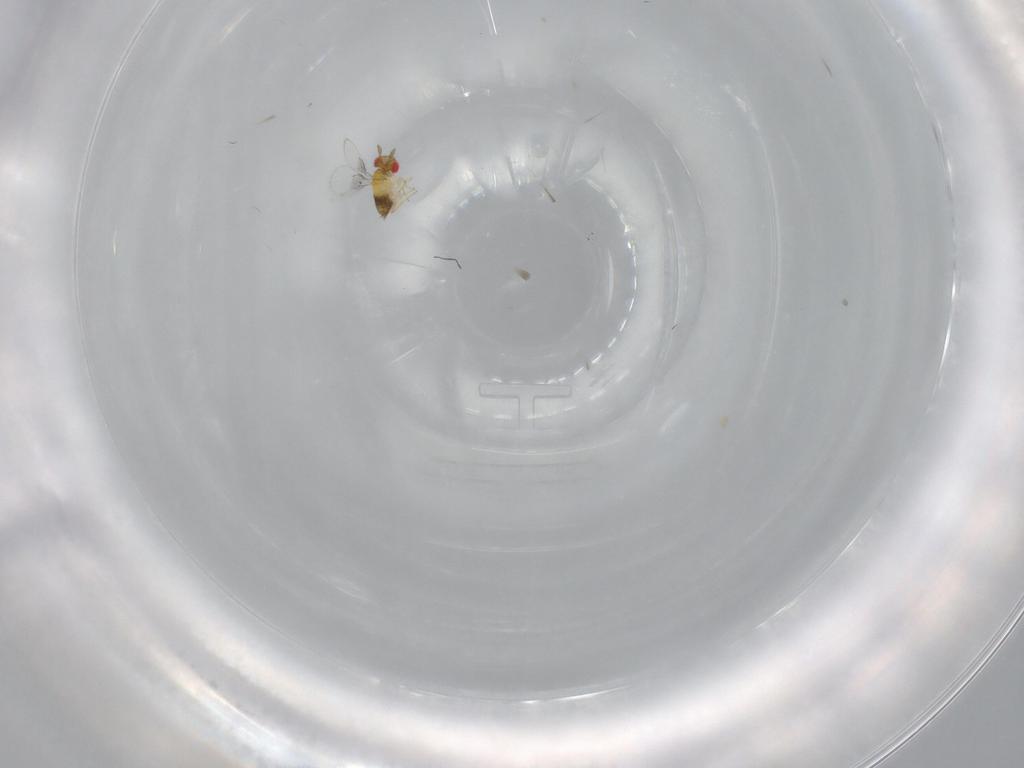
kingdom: Animalia
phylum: Arthropoda
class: Insecta
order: Hymenoptera
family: Trichogrammatidae
